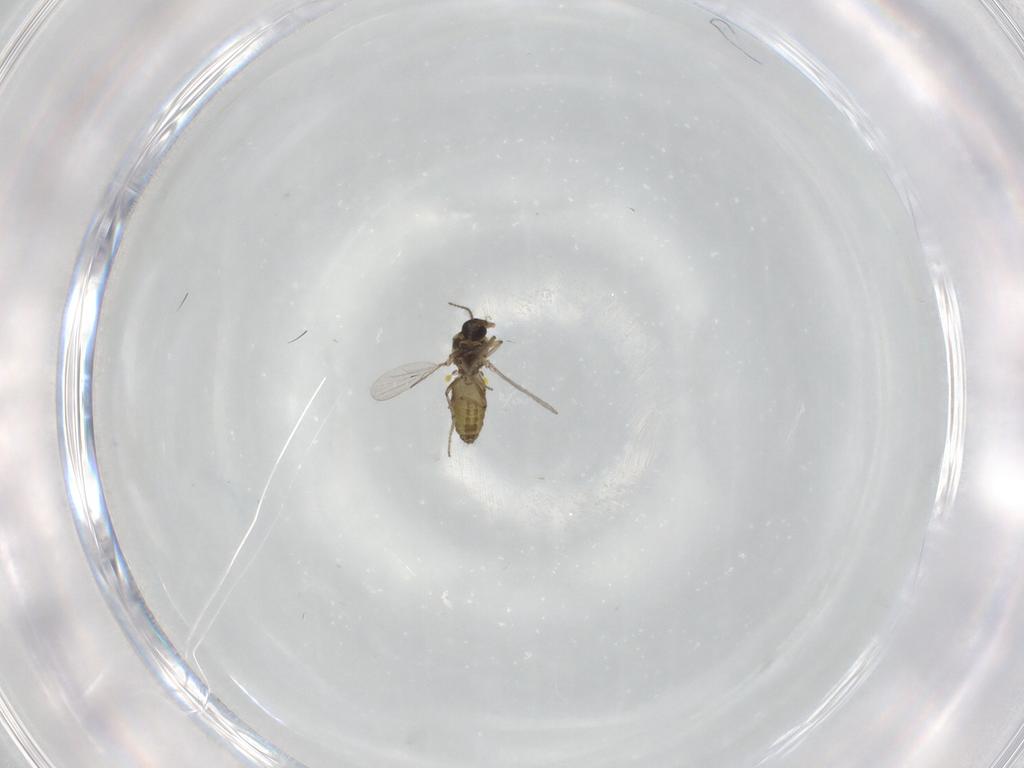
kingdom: Animalia
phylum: Arthropoda
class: Insecta
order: Diptera
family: Ceratopogonidae
